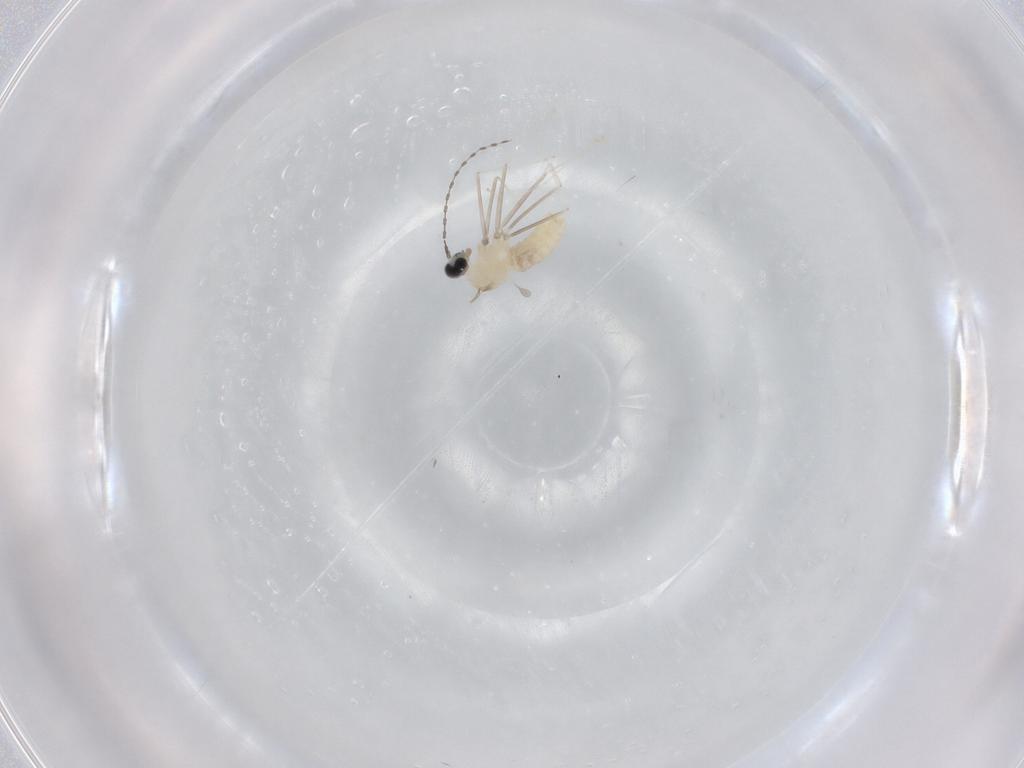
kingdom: Animalia
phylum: Arthropoda
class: Insecta
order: Diptera
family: Cecidomyiidae
